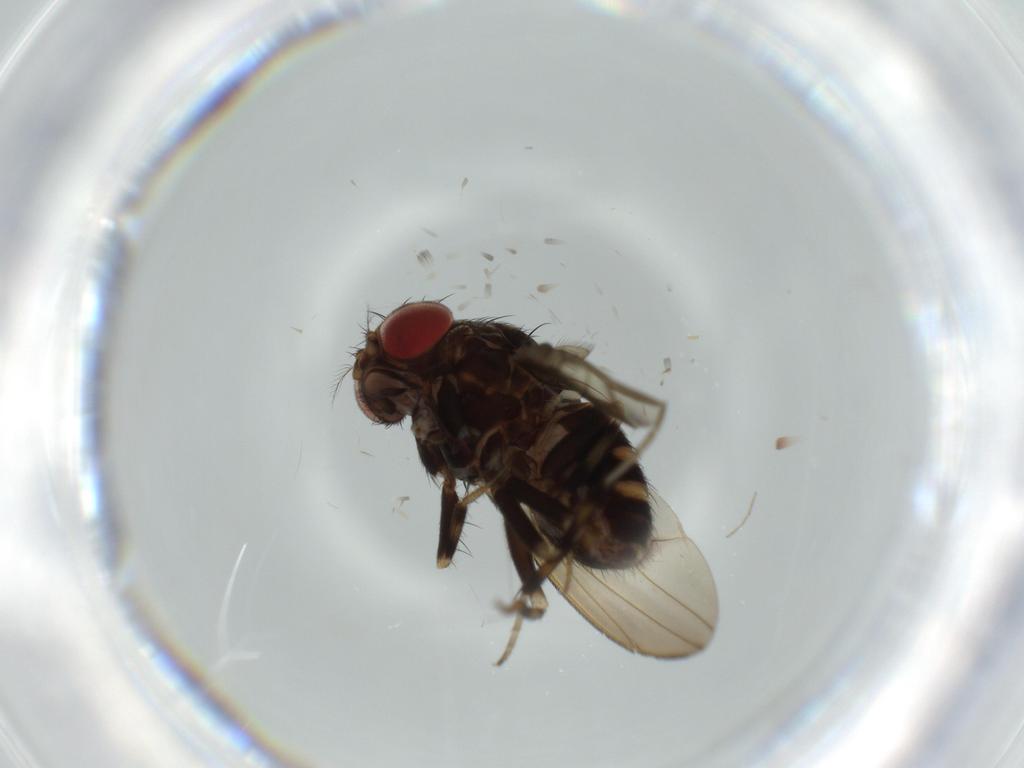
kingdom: Animalia
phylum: Arthropoda
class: Insecta
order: Diptera
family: Drosophilidae
